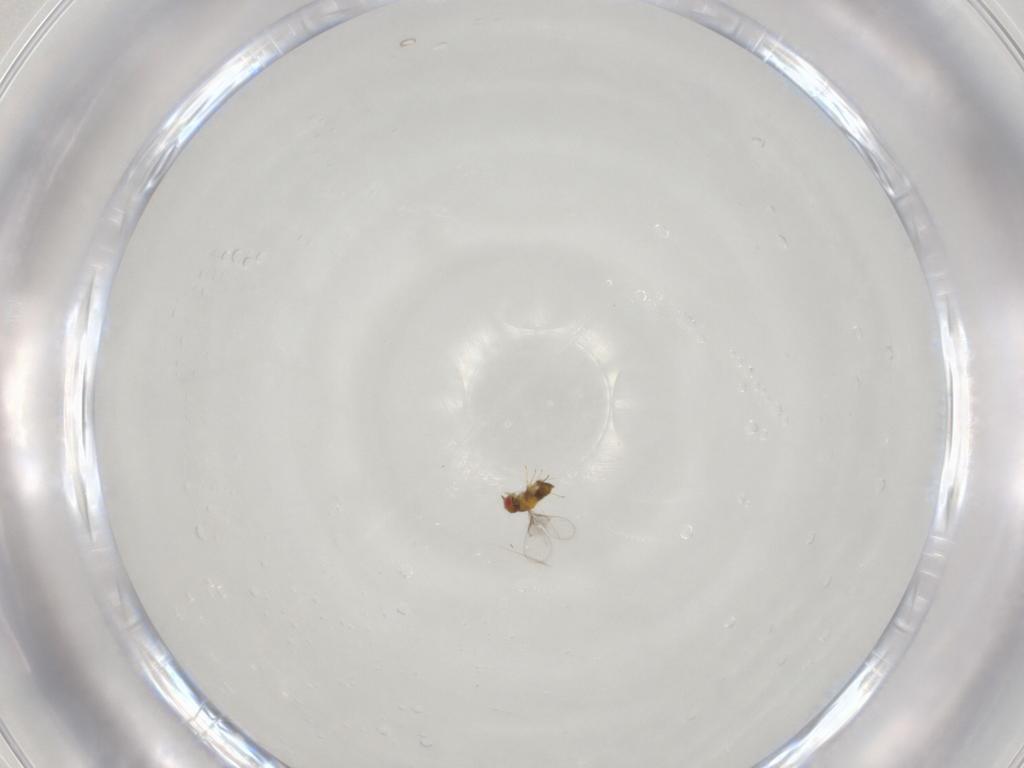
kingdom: Animalia
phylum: Arthropoda
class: Insecta
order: Hymenoptera
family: Trichogrammatidae
